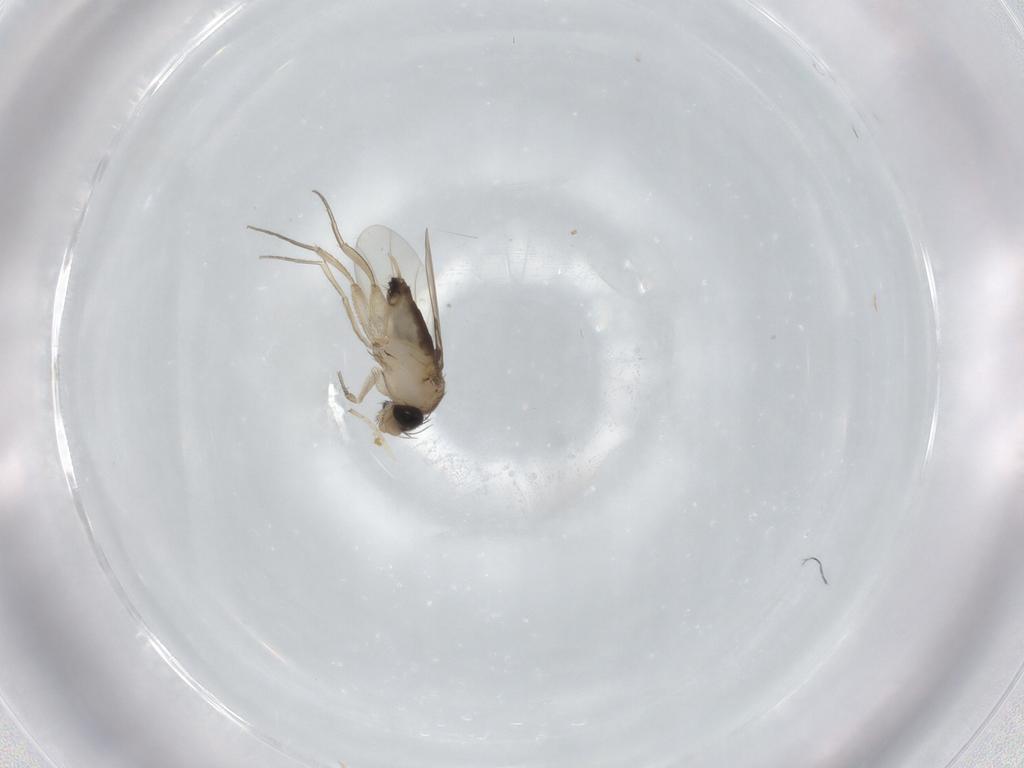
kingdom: Animalia
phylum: Arthropoda
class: Insecta
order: Diptera
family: Phoridae
